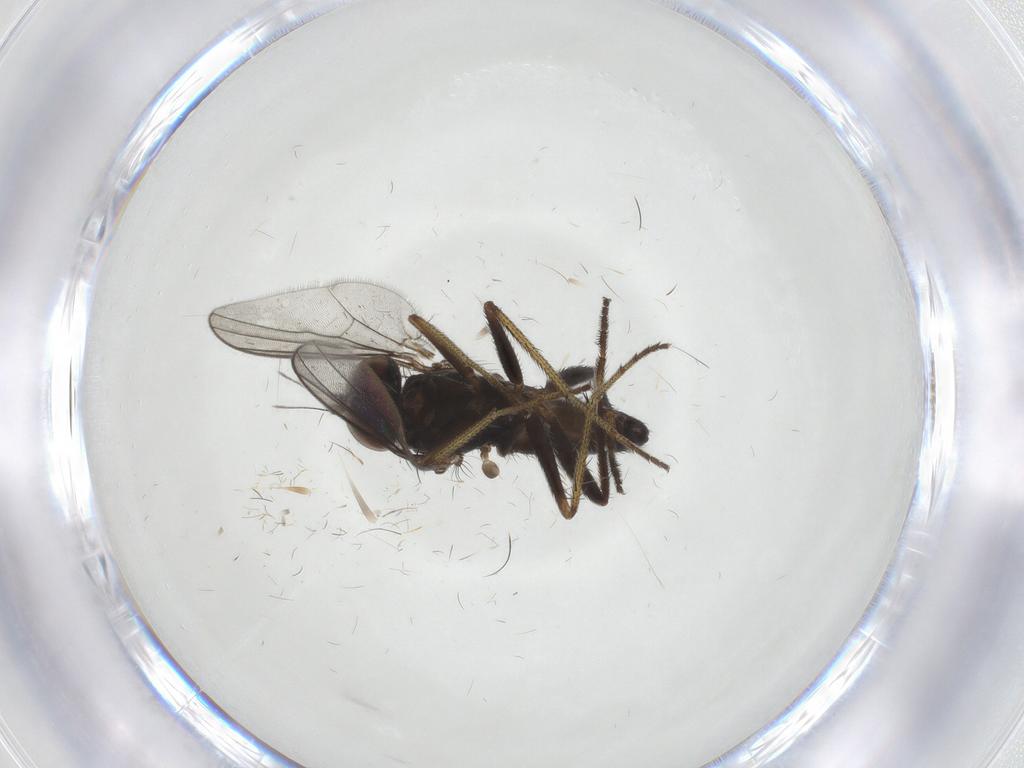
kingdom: Animalia
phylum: Arthropoda
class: Insecta
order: Diptera
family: Dolichopodidae
